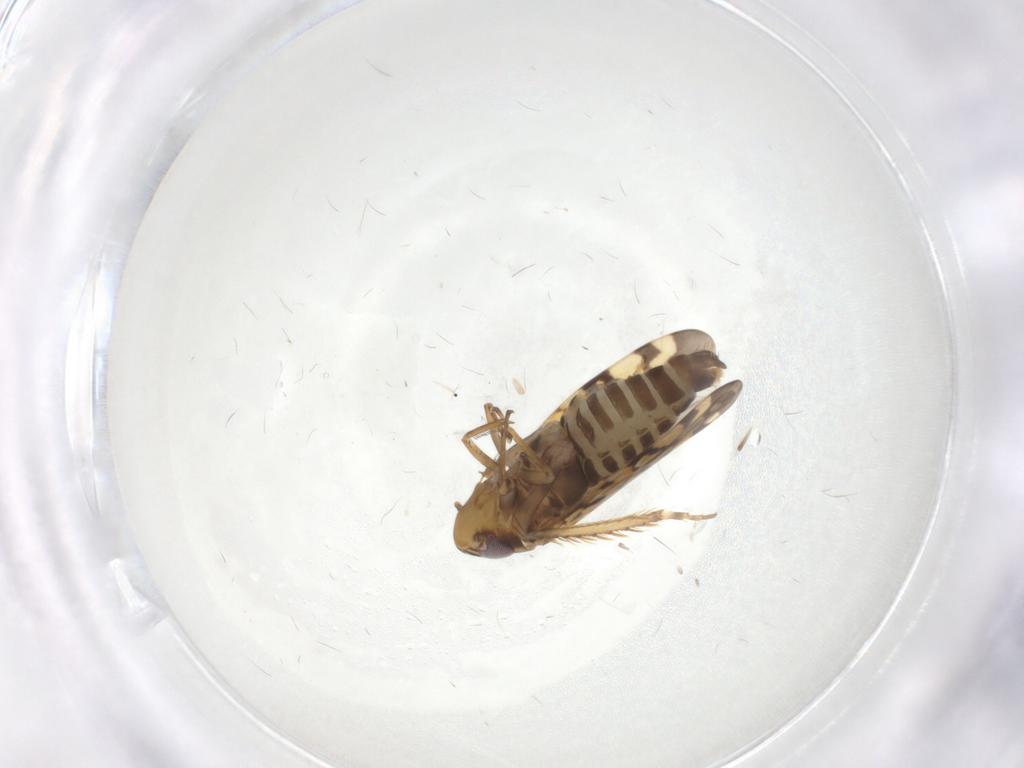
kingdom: Animalia
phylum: Arthropoda
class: Insecta
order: Hemiptera
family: Cicadellidae
